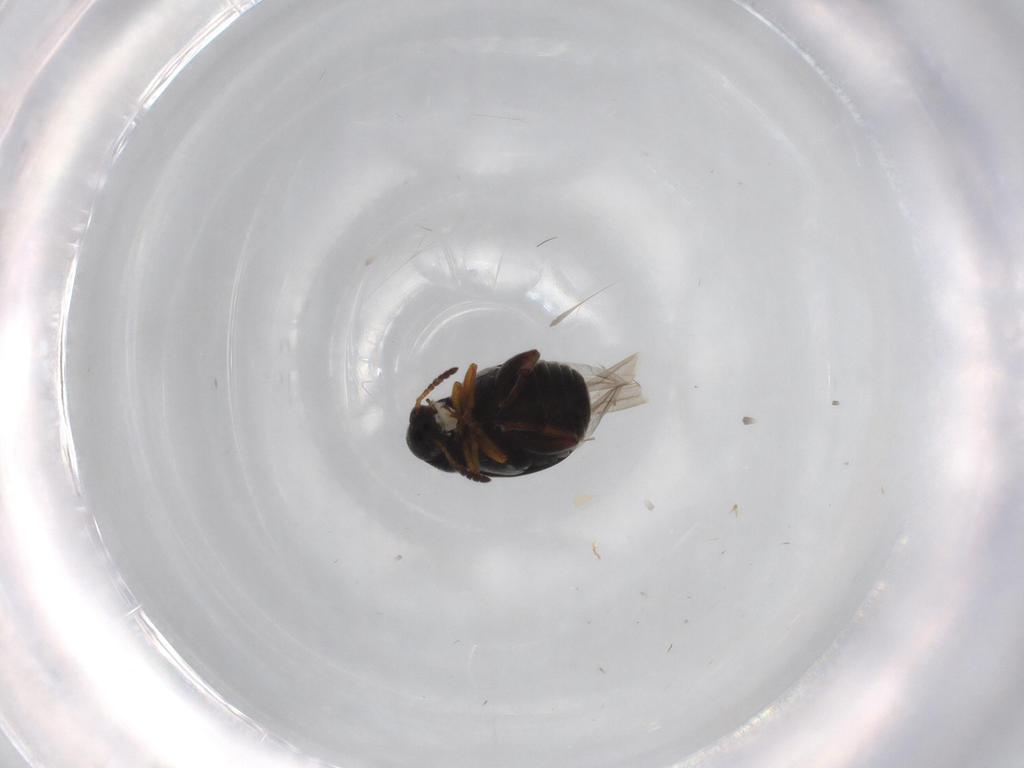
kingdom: Animalia
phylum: Arthropoda
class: Insecta
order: Coleoptera
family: Chrysomelidae
